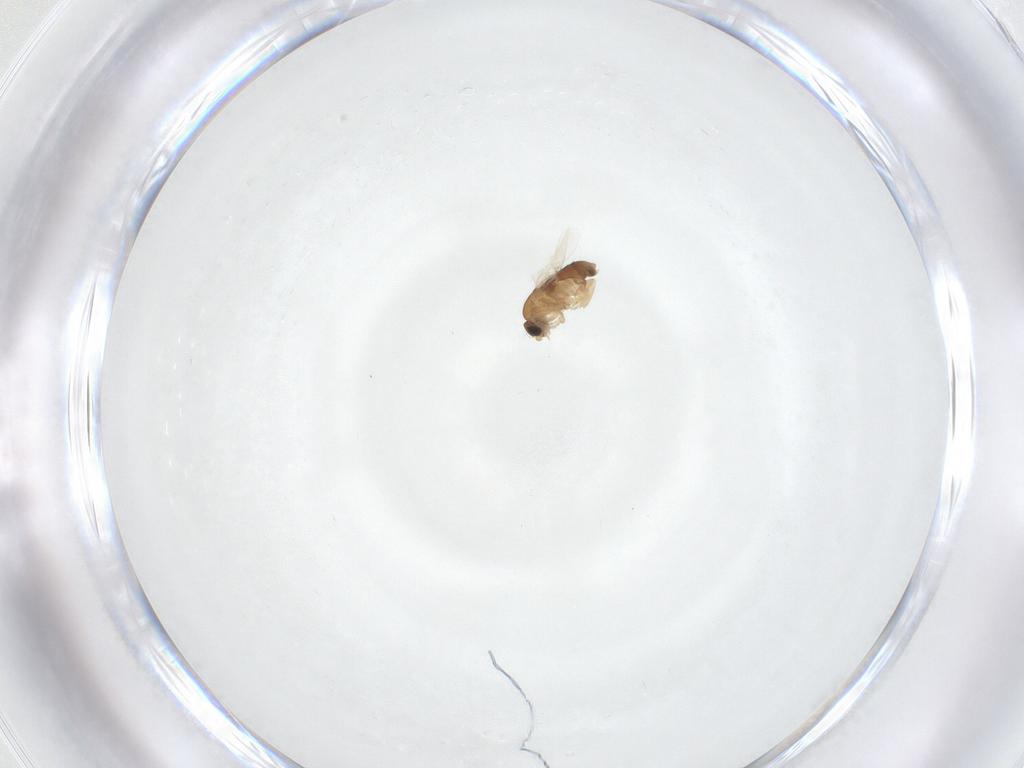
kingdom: Animalia
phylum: Arthropoda
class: Insecta
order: Diptera
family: Phoridae
